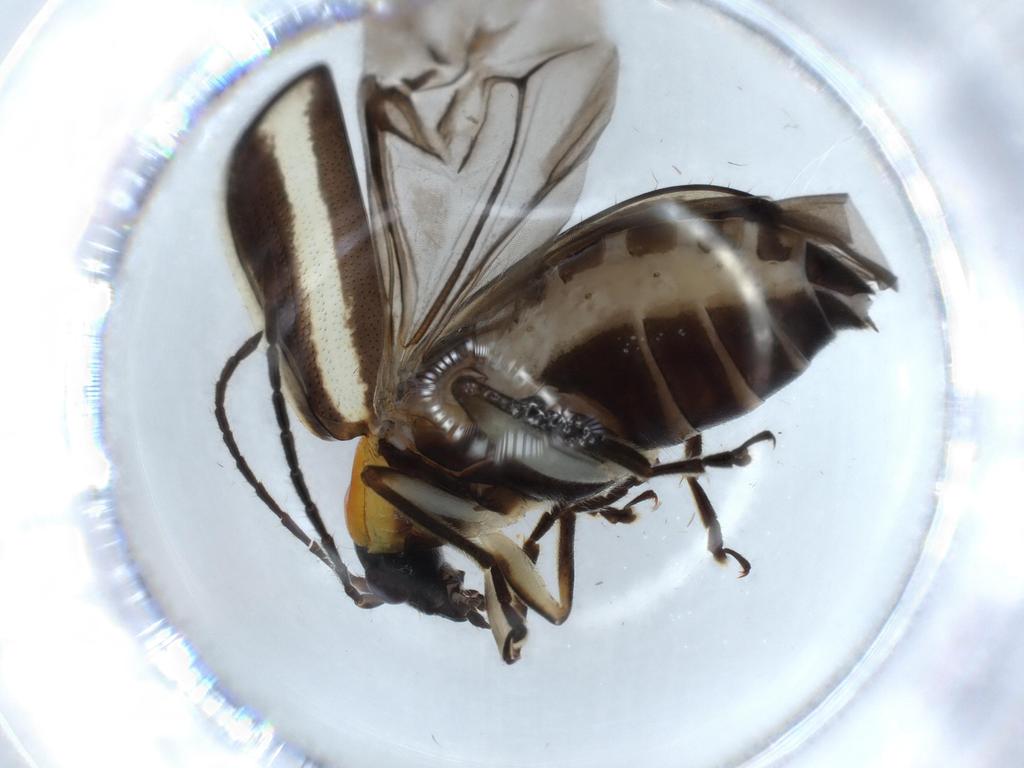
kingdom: Animalia
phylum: Arthropoda
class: Insecta
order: Coleoptera
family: Mordellidae
